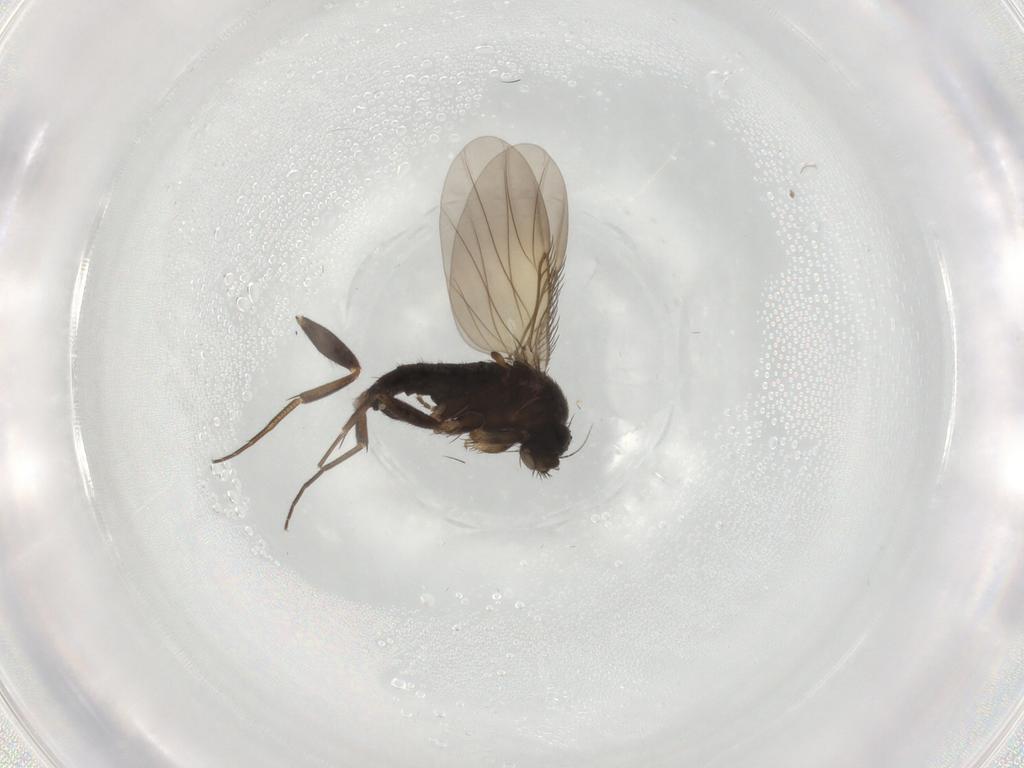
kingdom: Animalia
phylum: Arthropoda
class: Insecta
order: Diptera
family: Phoridae
